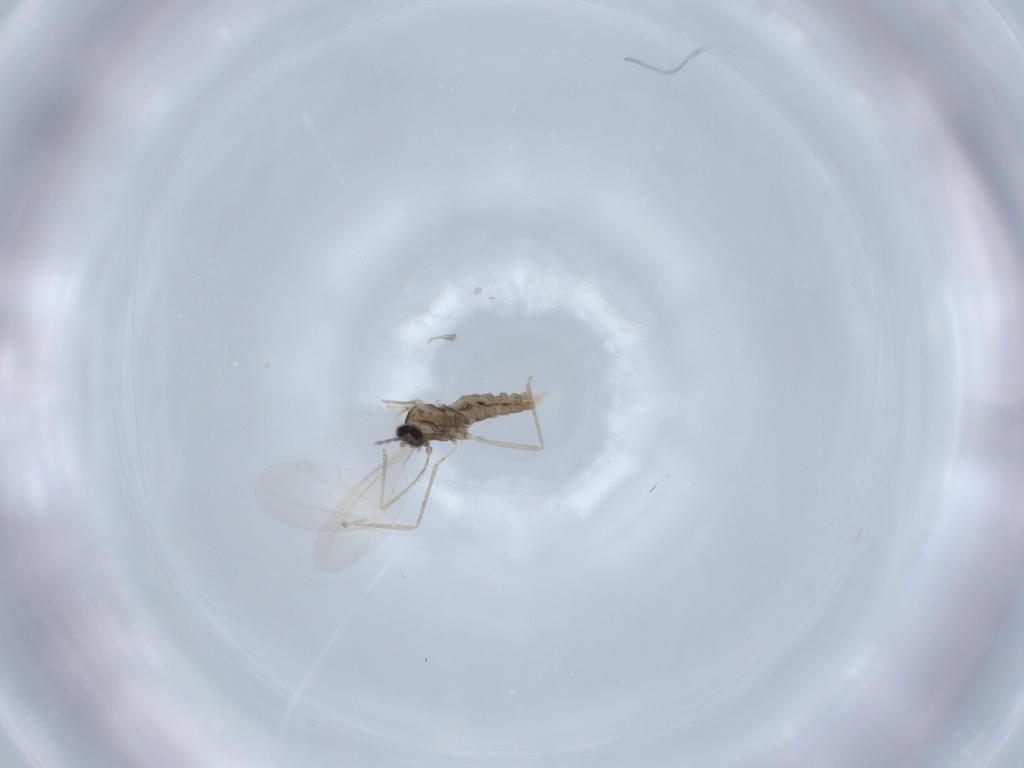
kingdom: Animalia
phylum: Arthropoda
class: Insecta
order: Diptera
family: Cecidomyiidae
